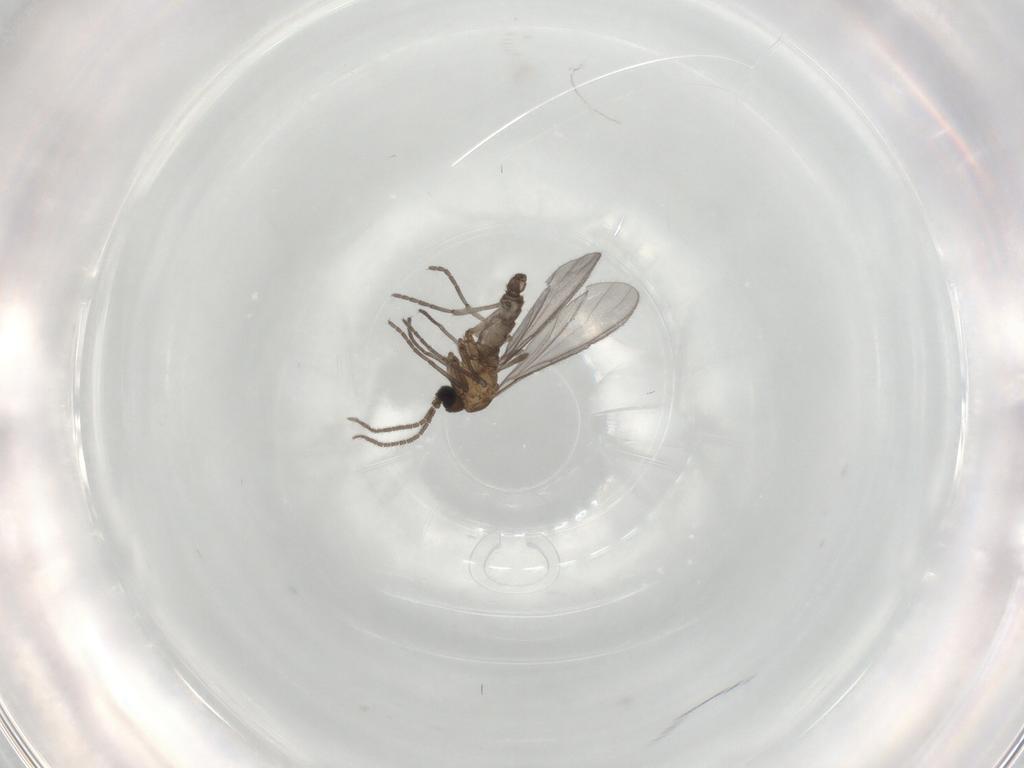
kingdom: Animalia
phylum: Arthropoda
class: Insecta
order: Diptera
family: Sciaridae
